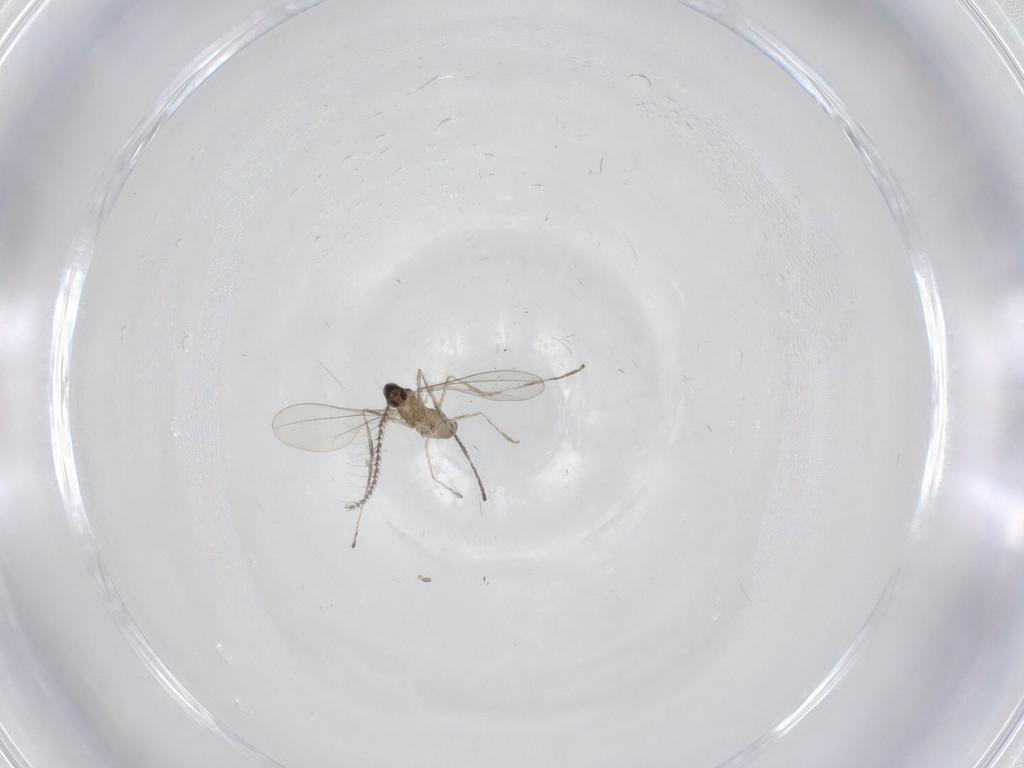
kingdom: Animalia
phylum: Arthropoda
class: Insecta
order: Diptera
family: Cecidomyiidae
